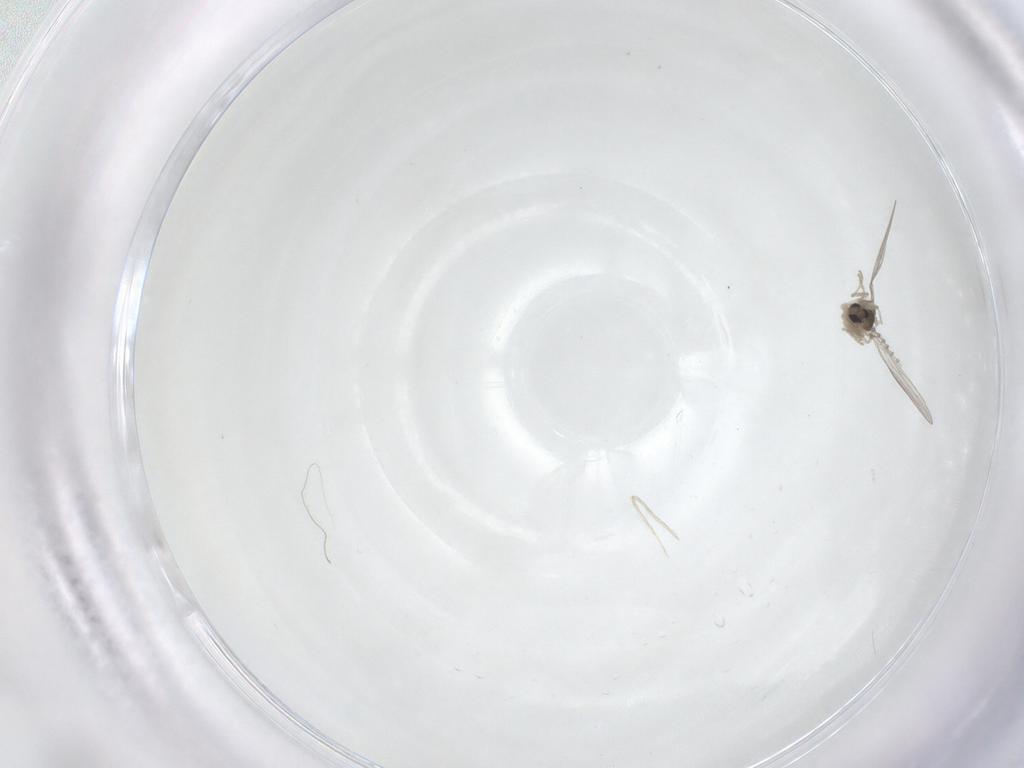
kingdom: Animalia
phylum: Arthropoda
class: Insecta
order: Diptera
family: Cecidomyiidae
